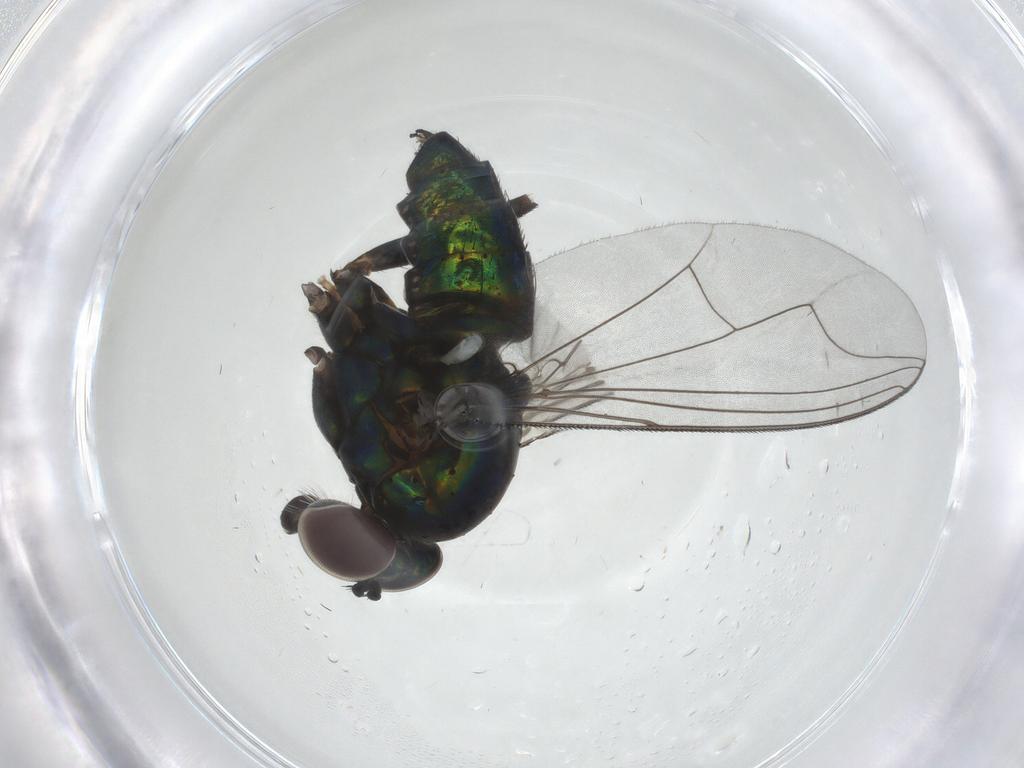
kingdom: Animalia
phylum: Arthropoda
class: Insecta
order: Diptera
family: Dolichopodidae
